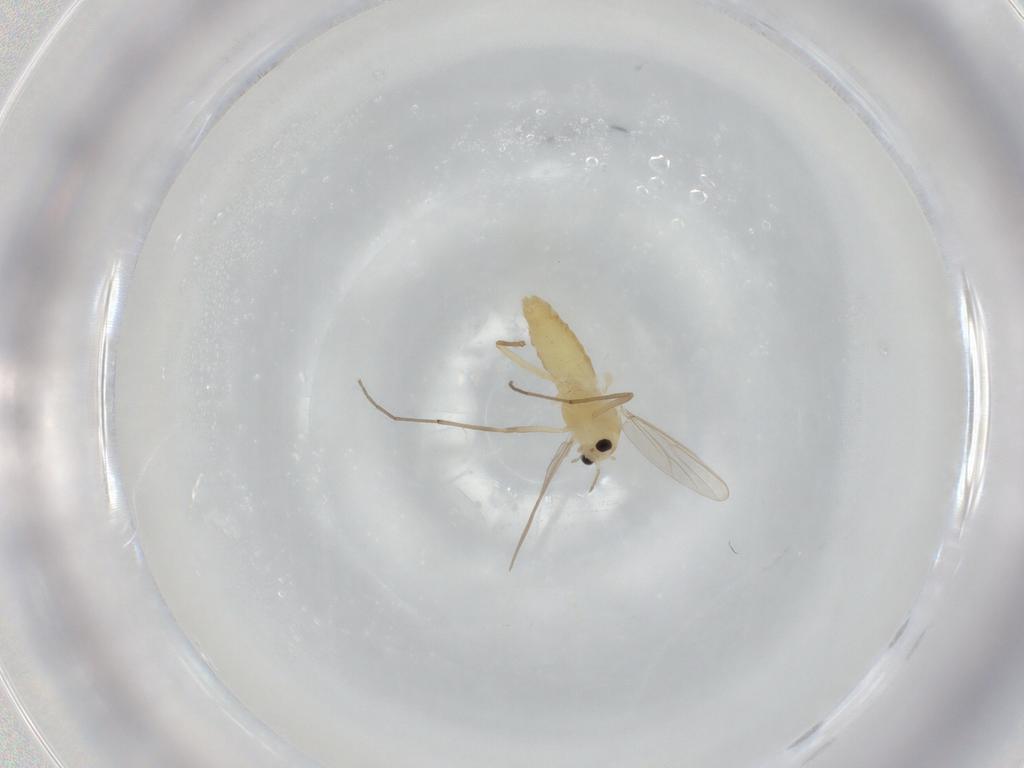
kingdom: Animalia
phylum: Arthropoda
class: Insecta
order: Diptera
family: Chironomidae
